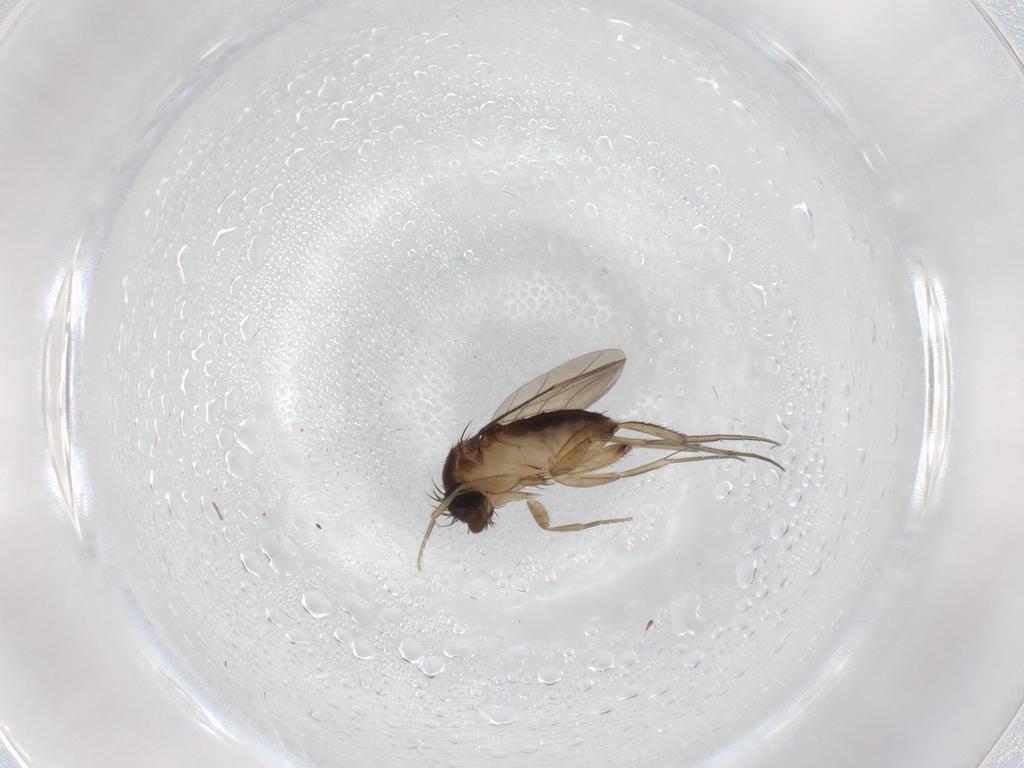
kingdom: Animalia
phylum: Arthropoda
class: Insecta
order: Diptera
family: Phoridae
